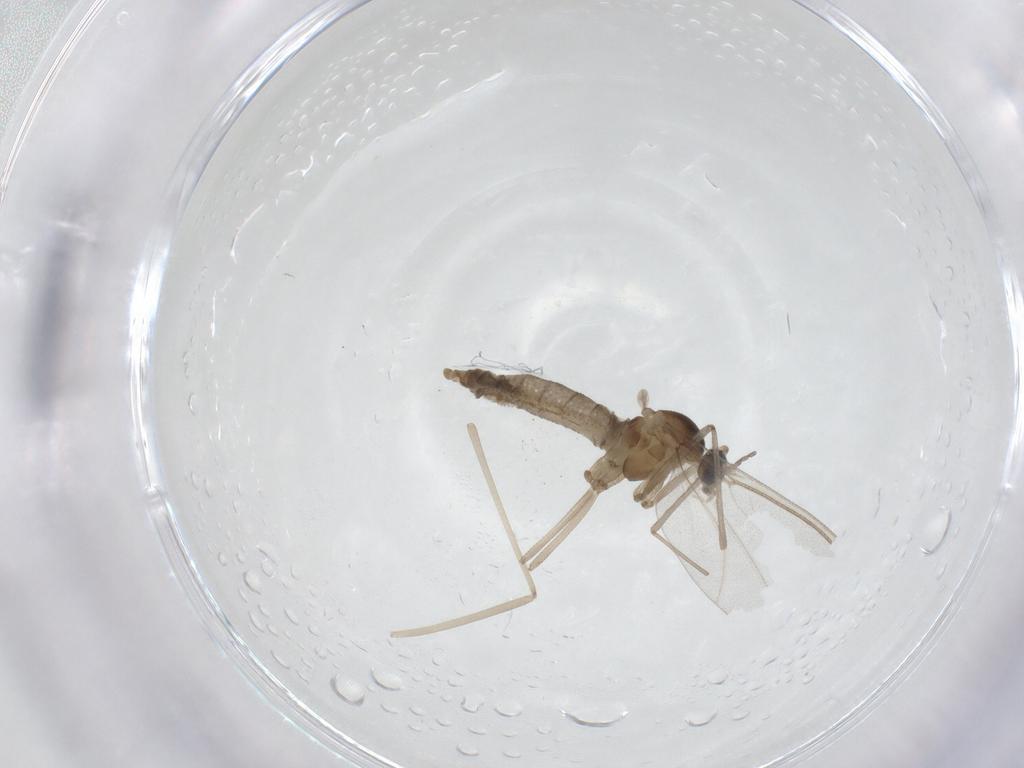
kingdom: Animalia
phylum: Arthropoda
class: Insecta
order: Diptera
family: Cecidomyiidae
